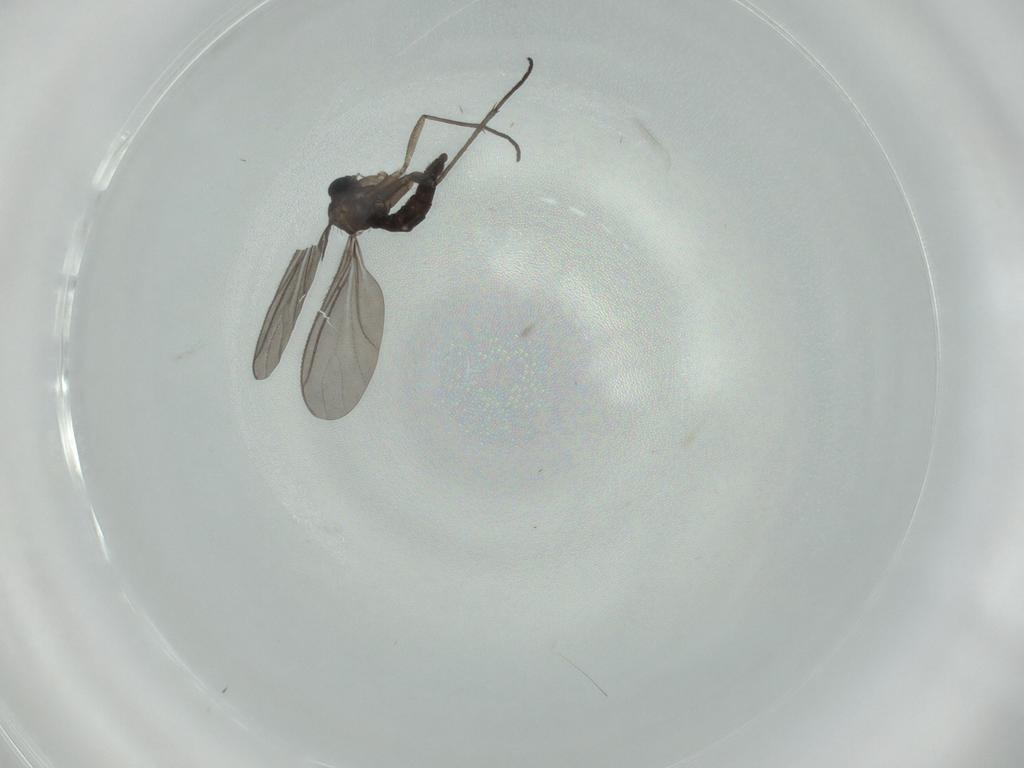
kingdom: Animalia
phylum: Arthropoda
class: Insecta
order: Diptera
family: Sciaridae
